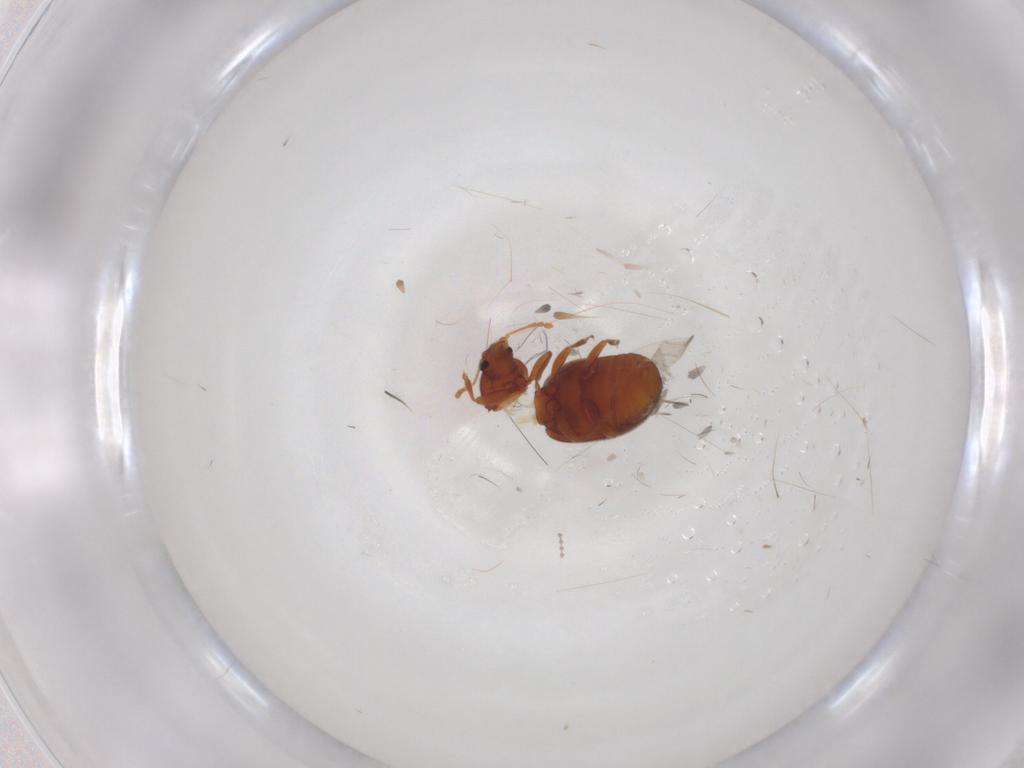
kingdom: Animalia
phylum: Arthropoda
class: Insecta
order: Coleoptera
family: Latridiidae
